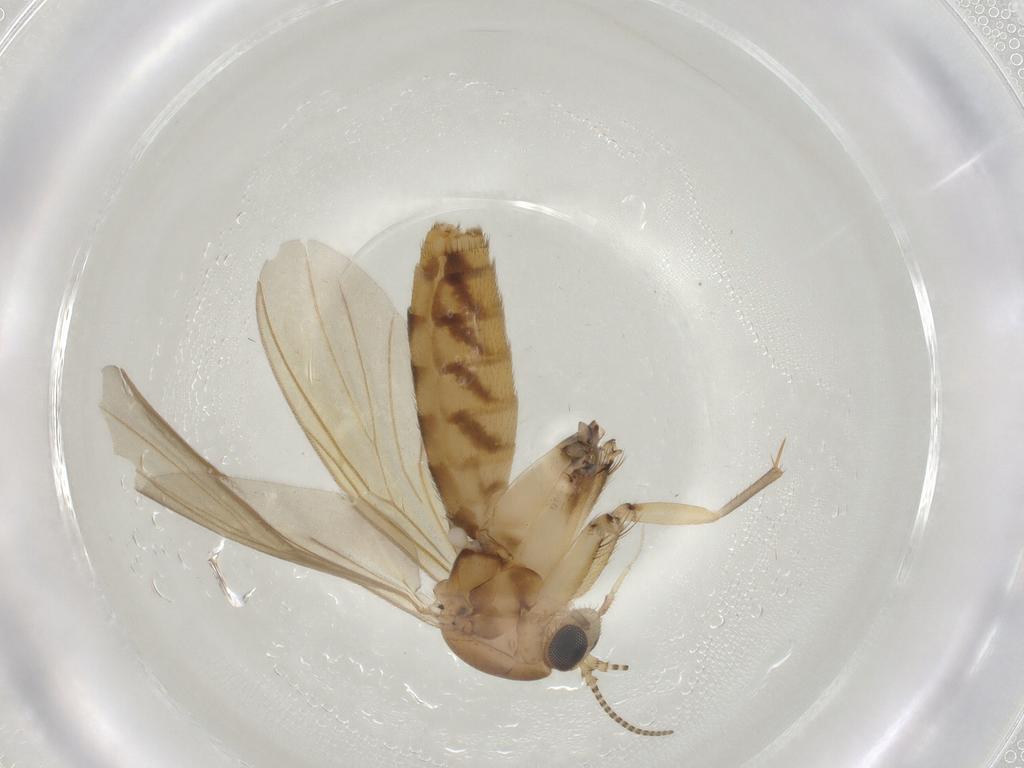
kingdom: Animalia
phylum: Arthropoda
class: Insecta
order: Diptera
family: Mycetophilidae
